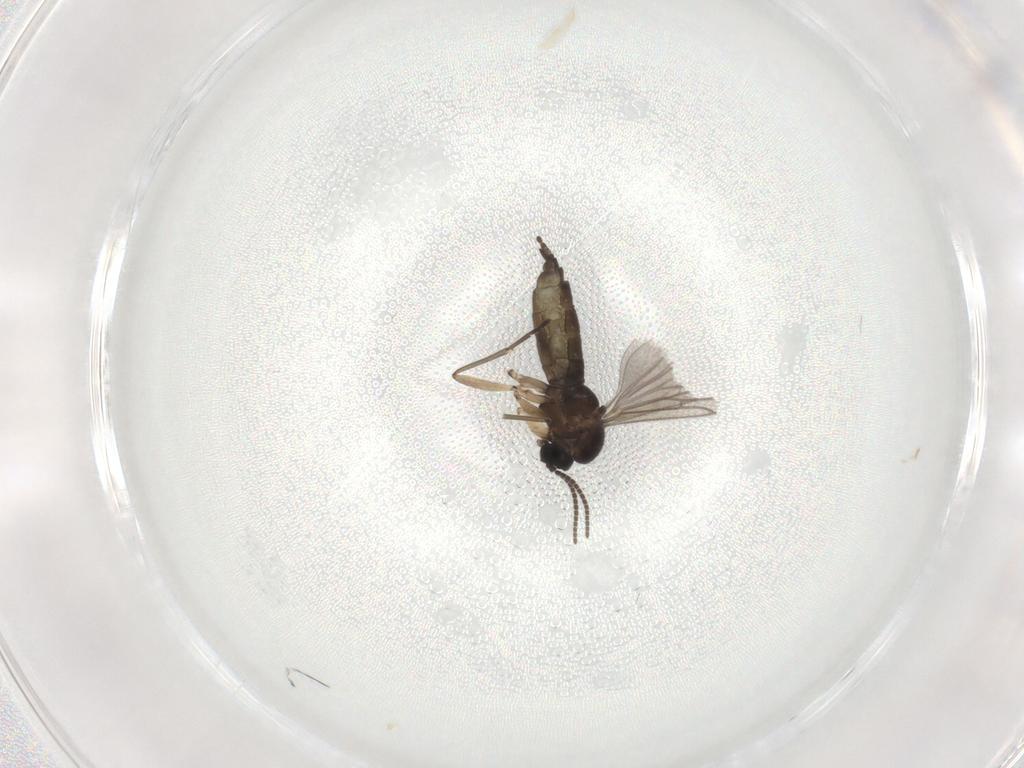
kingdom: Animalia
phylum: Arthropoda
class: Insecta
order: Diptera
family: Sciaridae
